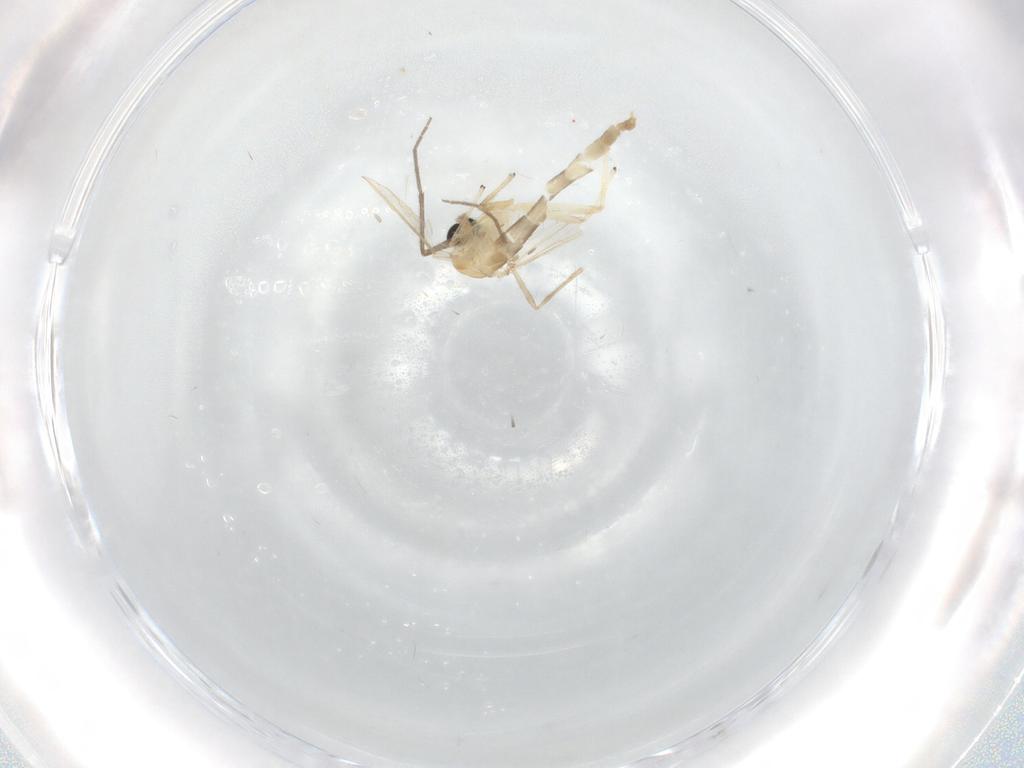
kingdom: Animalia
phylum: Arthropoda
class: Insecta
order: Diptera
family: Chironomidae
